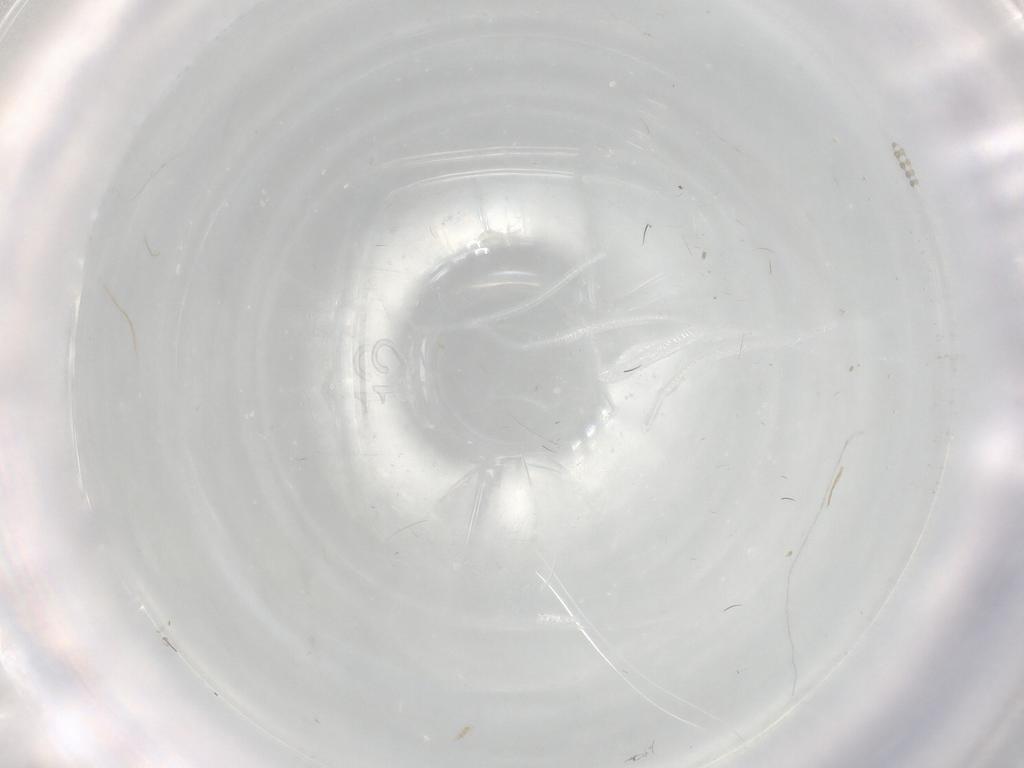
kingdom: Animalia
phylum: Arthropoda
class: Insecta
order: Diptera
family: Cecidomyiidae
